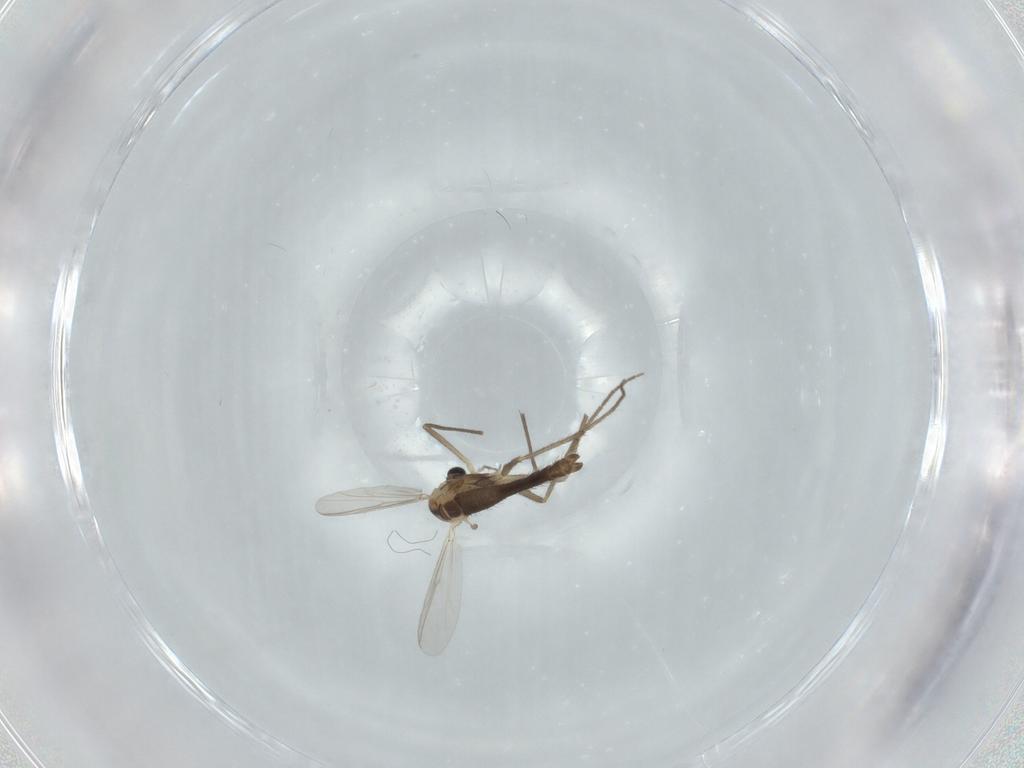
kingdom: Animalia
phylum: Arthropoda
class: Insecta
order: Diptera
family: Chironomidae
